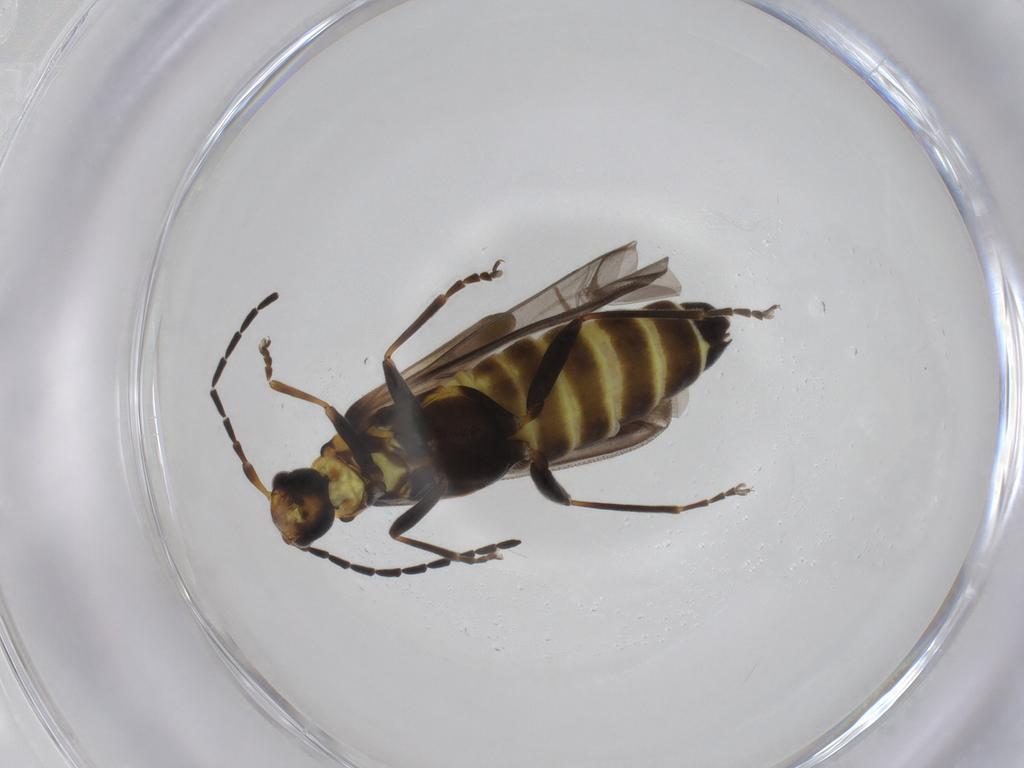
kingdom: Animalia
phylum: Arthropoda
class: Insecta
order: Coleoptera
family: Cantharidae
